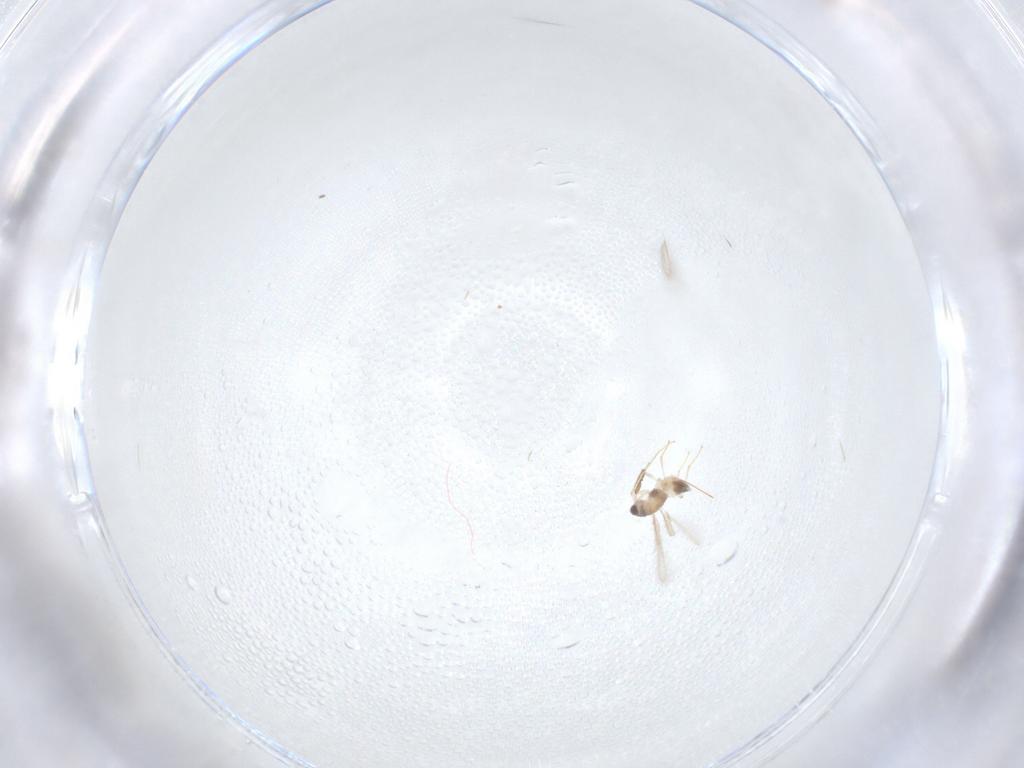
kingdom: Animalia
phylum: Arthropoda
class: Insecta
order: Hymenoptera
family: Mymaridae
